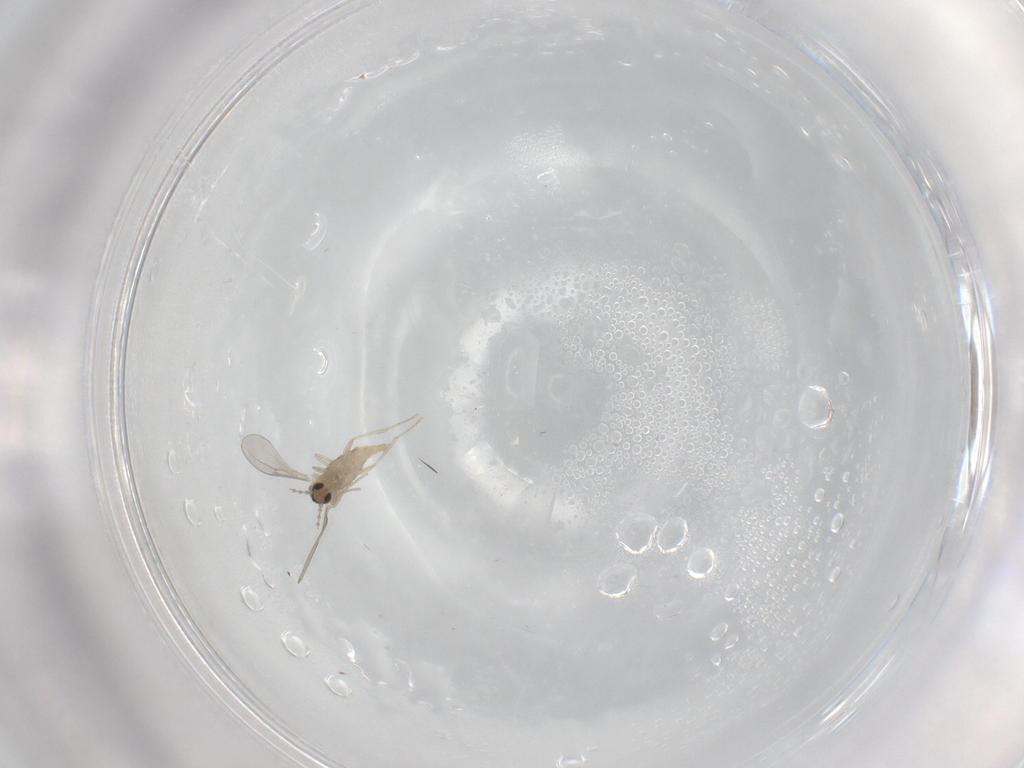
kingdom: Animalia
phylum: Arthropoda
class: Insecta
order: Diptera
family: Cecidomyiidae
